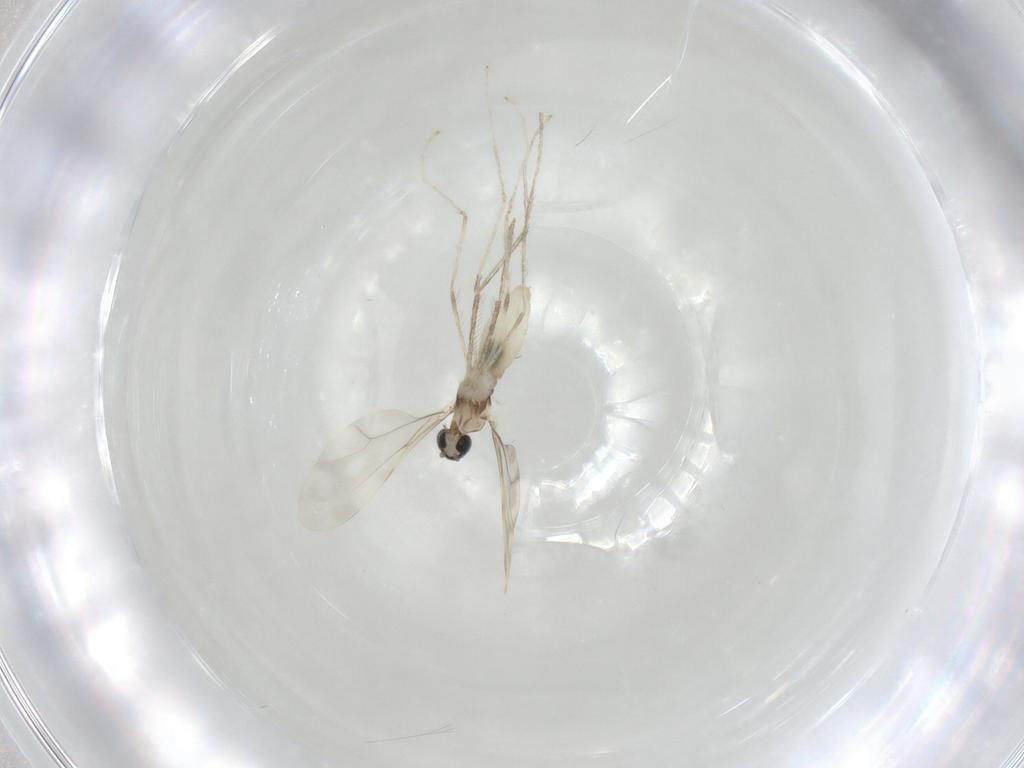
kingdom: Animalia
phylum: Arthropoda
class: Insecta
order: Diptera
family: Cecidomyiidae
